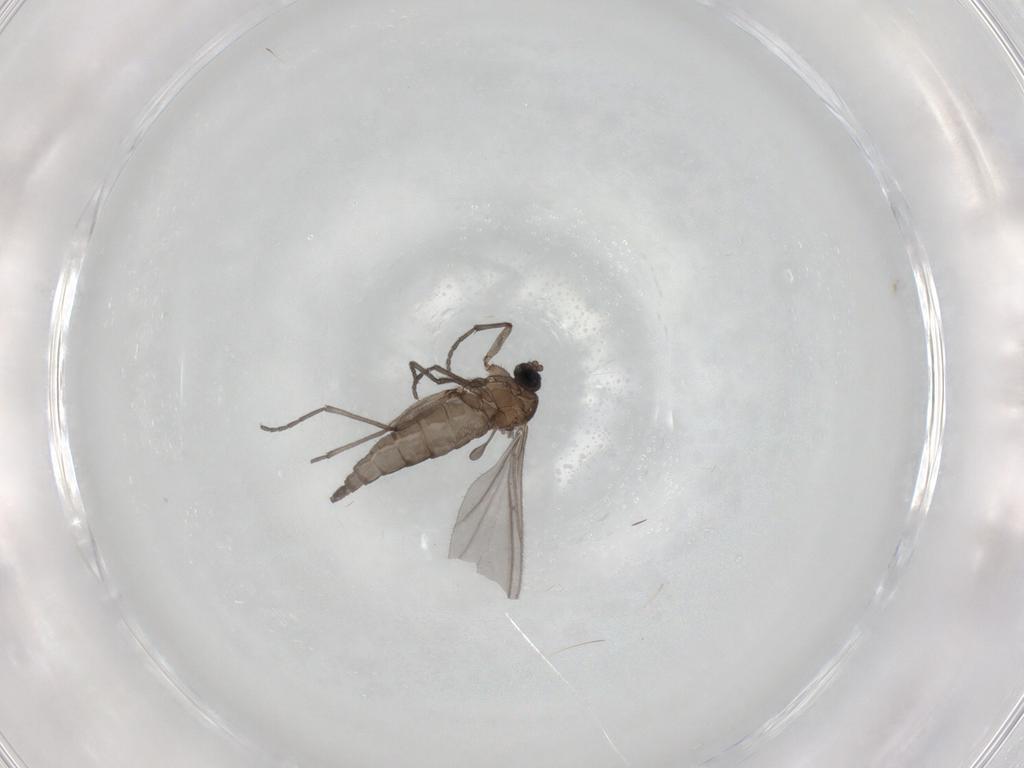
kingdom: Animalia
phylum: Arthropoda
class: Insecta
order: Diptera
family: Sciaridae
